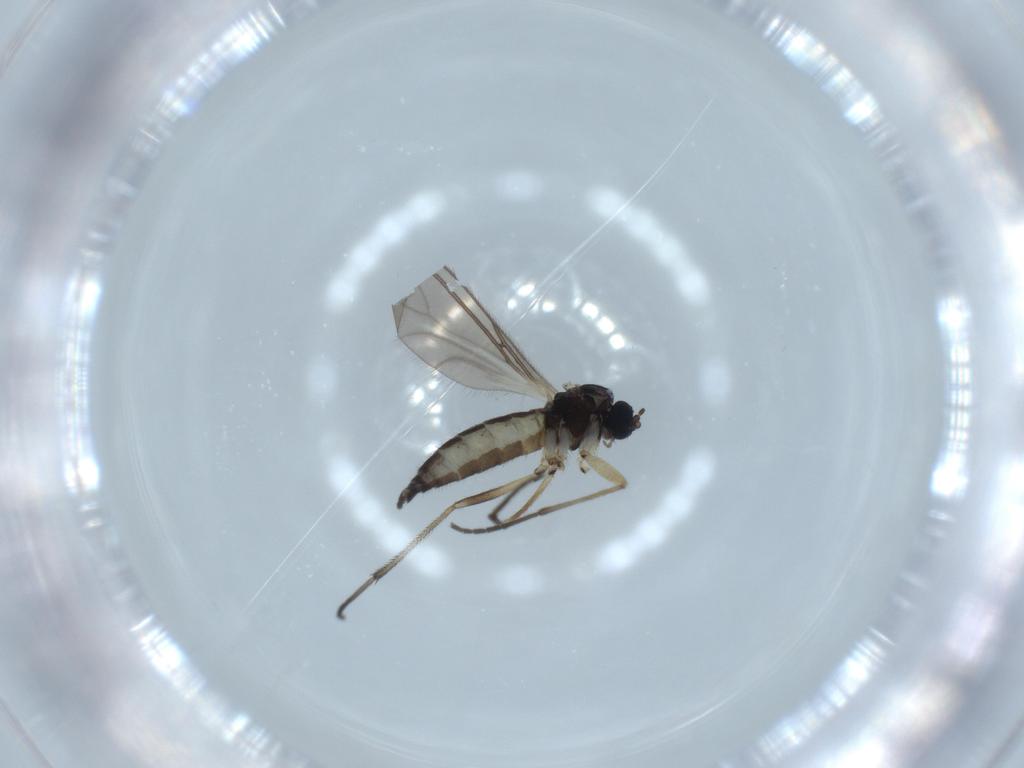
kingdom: Animalia
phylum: Arthropoda
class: Insecta
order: Diptera
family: Sciaridae
